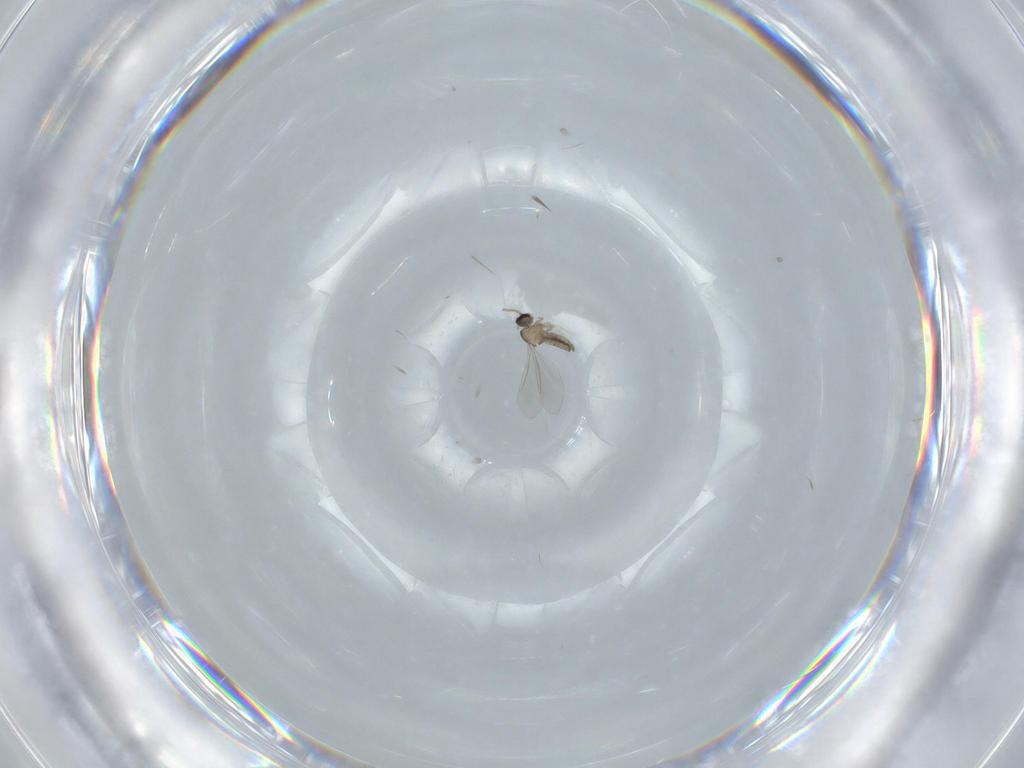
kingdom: Animalia
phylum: Arthropoda
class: Insecta
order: Diptera
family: Cecidomyiidae
